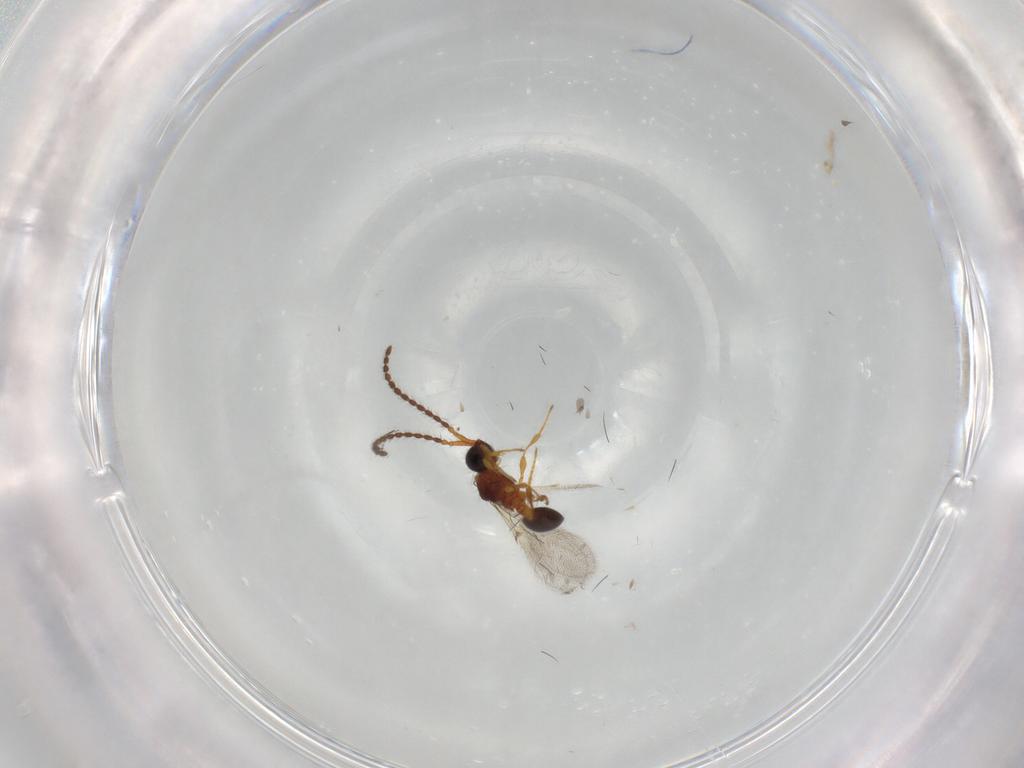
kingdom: Animalia
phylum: Arthropoda
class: Insecta
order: Hymenoptera
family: Diapriidae
